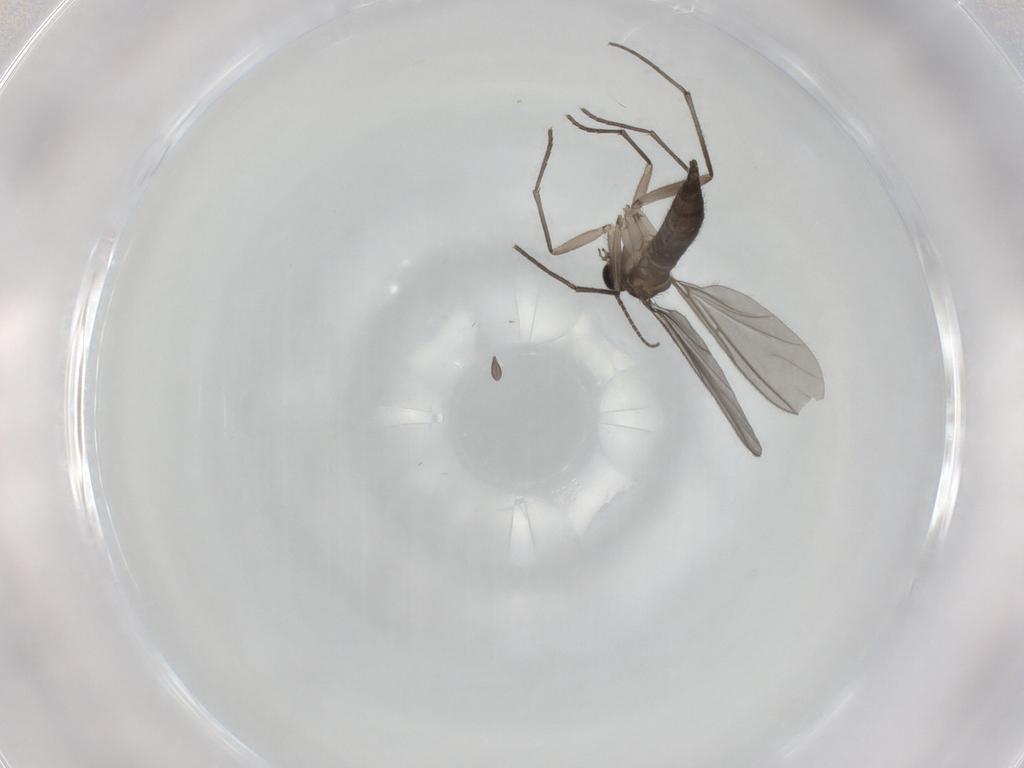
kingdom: Animalia
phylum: Arthropoda
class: Insecta
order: Diptera
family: Sciaridae
